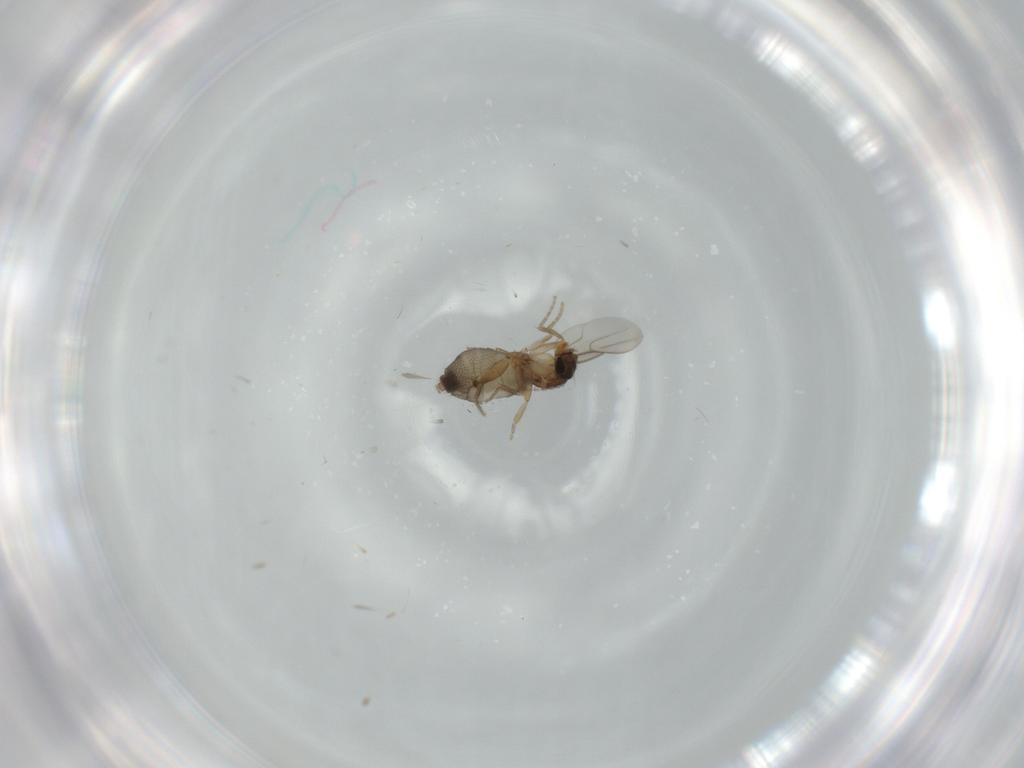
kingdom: Animalia
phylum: Arthropoda
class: Insecta
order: Diptera
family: Phoridae
